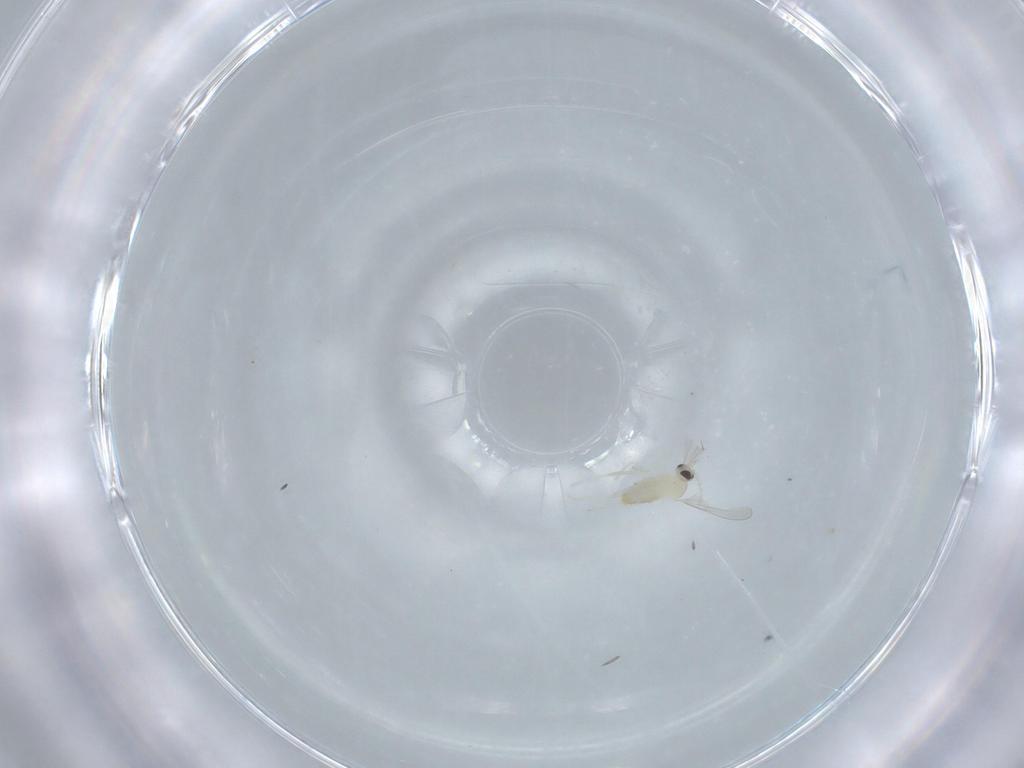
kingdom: Animalia
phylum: Arthropoda
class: Insecta
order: Diptera
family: Cecidomyiidae
